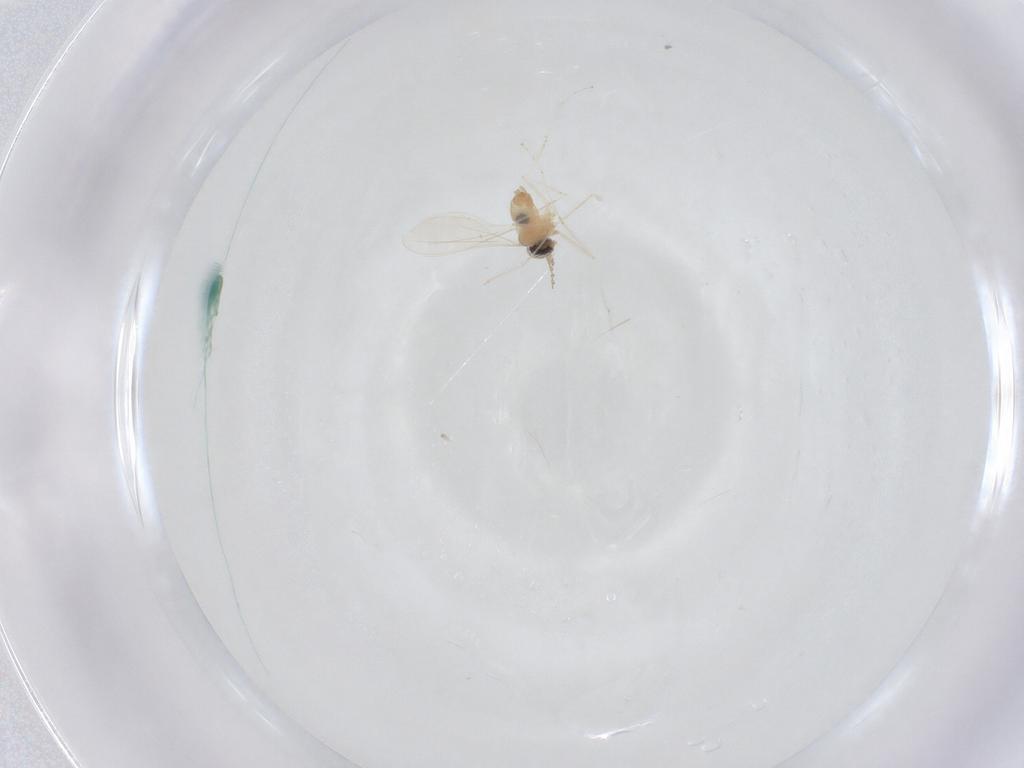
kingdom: Animalia
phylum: Arthropoda
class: Insecta
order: Diptera
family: Cecidomyiidae
